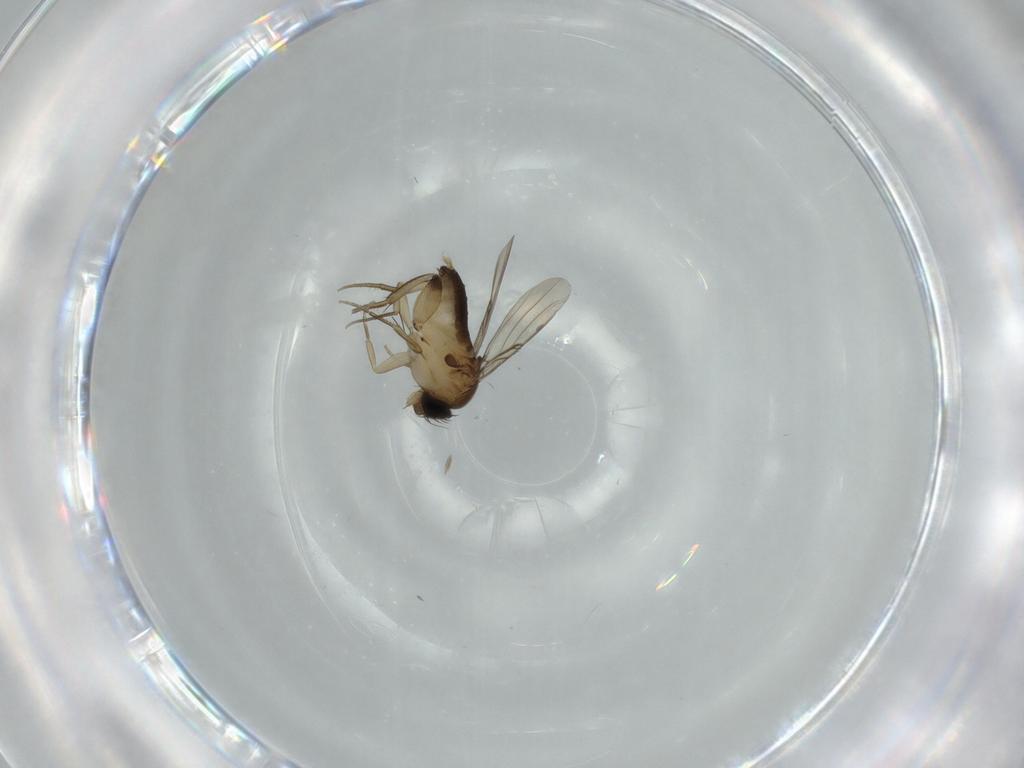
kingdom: Animalia
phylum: Arthropoda
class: Insecta
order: Diptera
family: Phoridae
